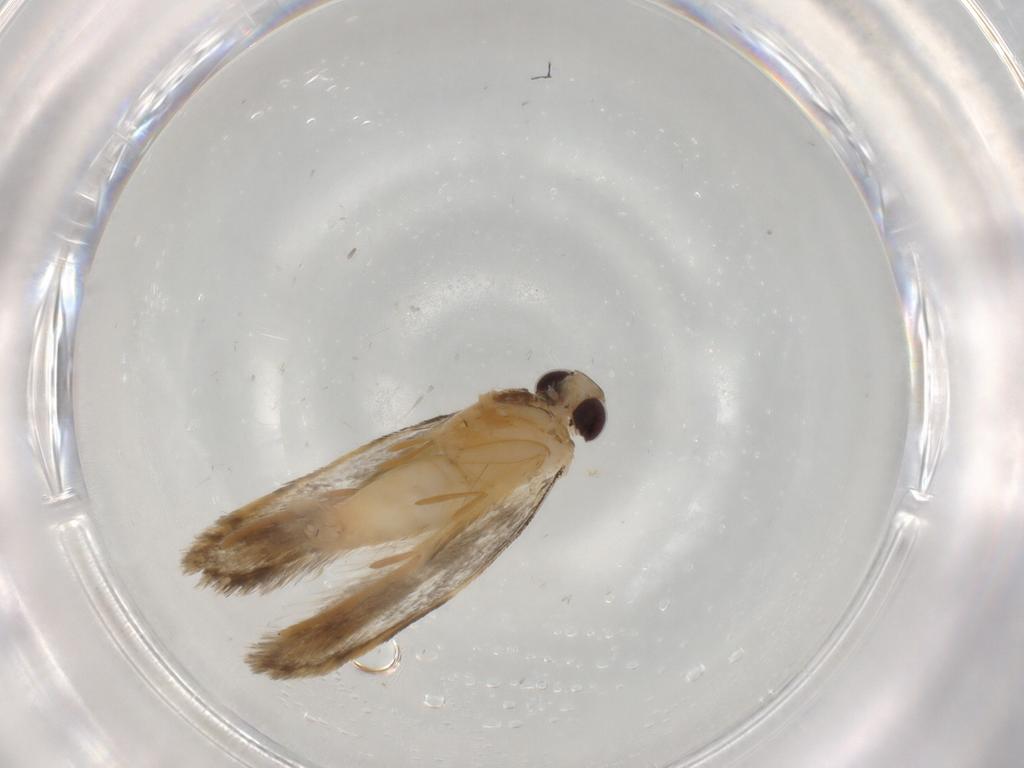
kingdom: Animalia
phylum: Arthropoda
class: Insecta
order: Lepidoptera
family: Autostichidae
